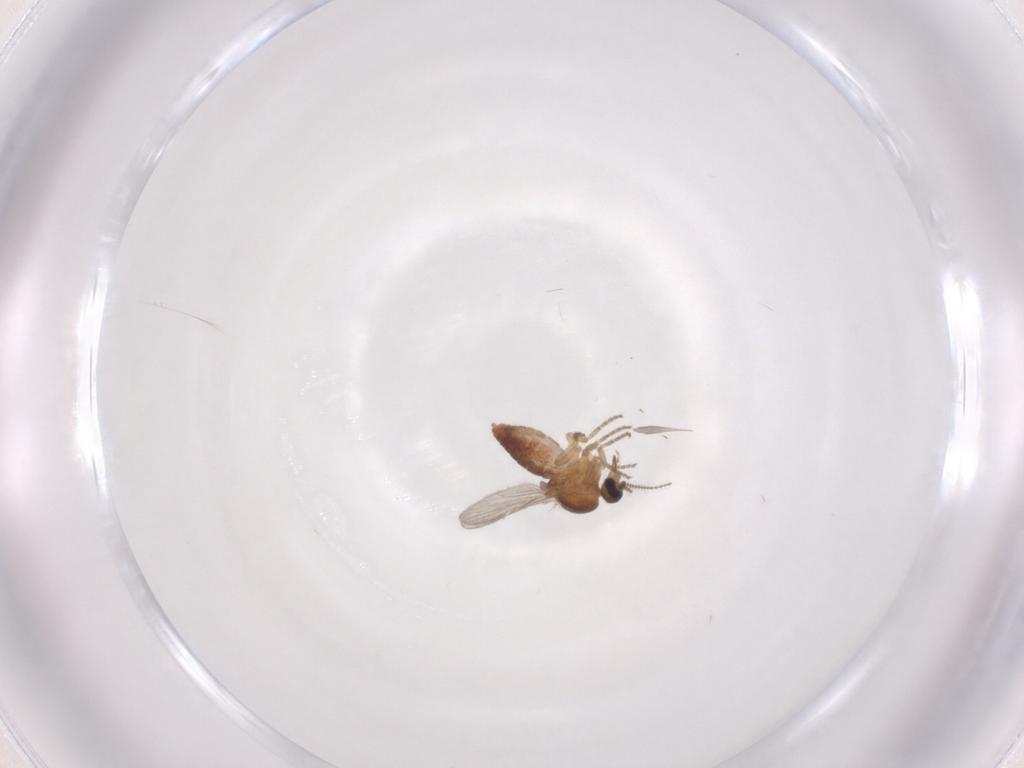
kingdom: Animalia
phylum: Arthropoda
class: Insecta
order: Diptera
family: Ceratopogonidae
